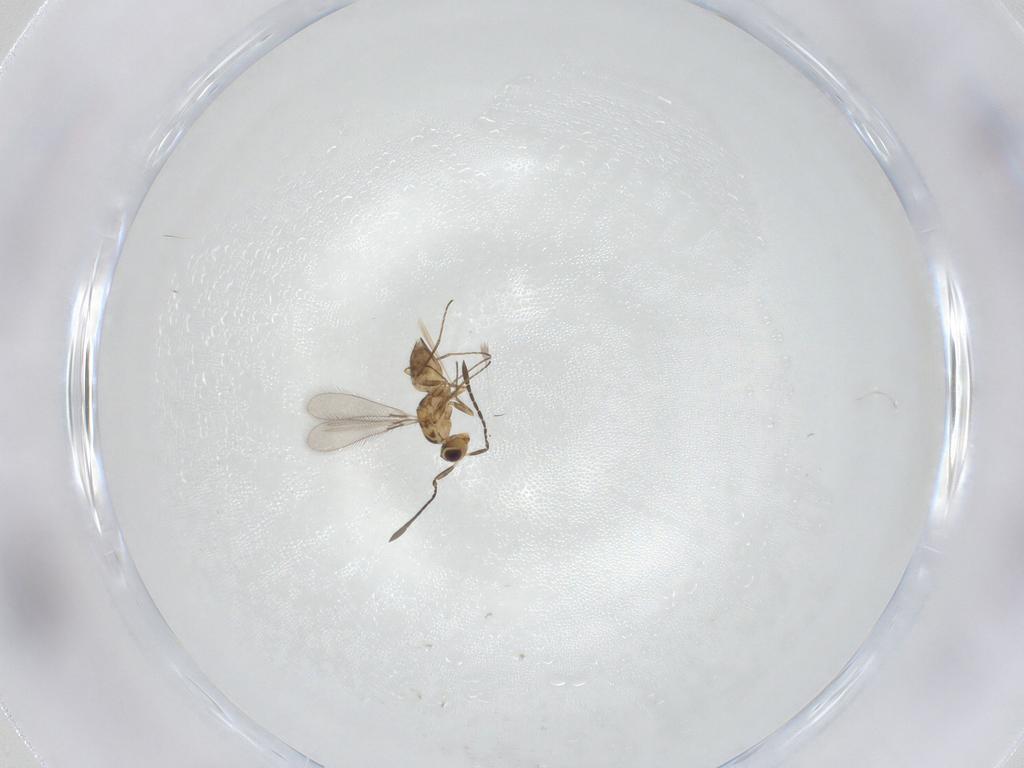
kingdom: Animalia
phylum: Arthropoda
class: Insecta
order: Hymenoptera
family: Mymaridae
